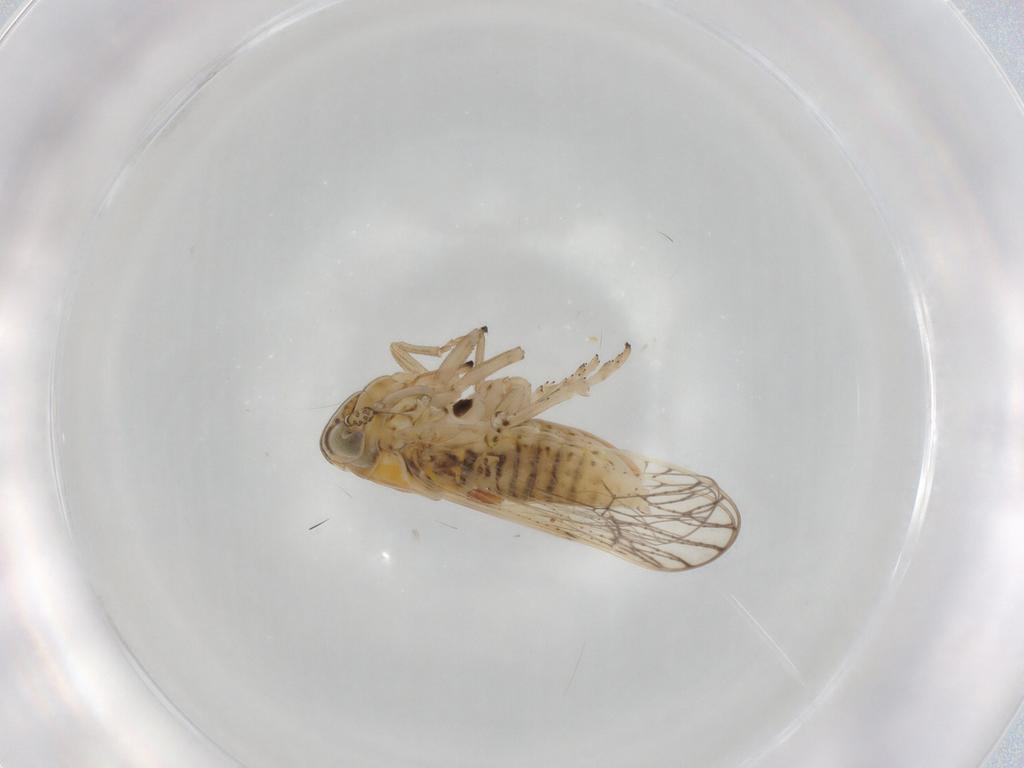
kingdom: Animalia
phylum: Arthropoda
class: Insecta
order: Hemiptera
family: Delphacidae
